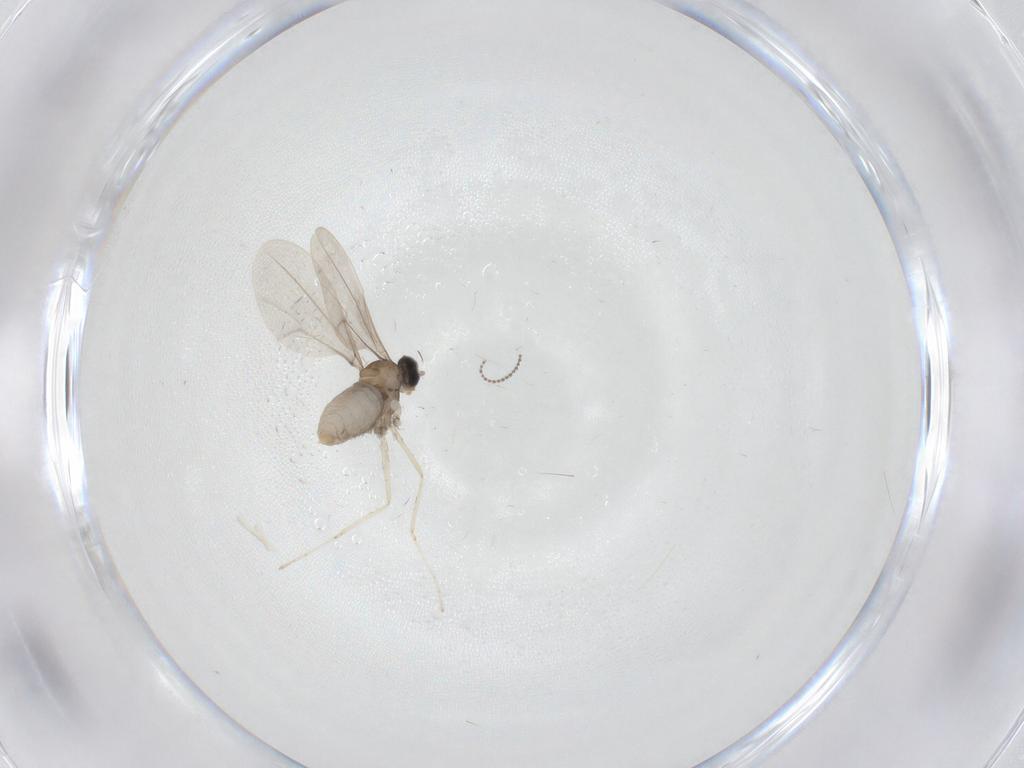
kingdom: Animalia
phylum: Arthropoda
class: Insecta
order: Diptera
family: Cecidomyiidae
